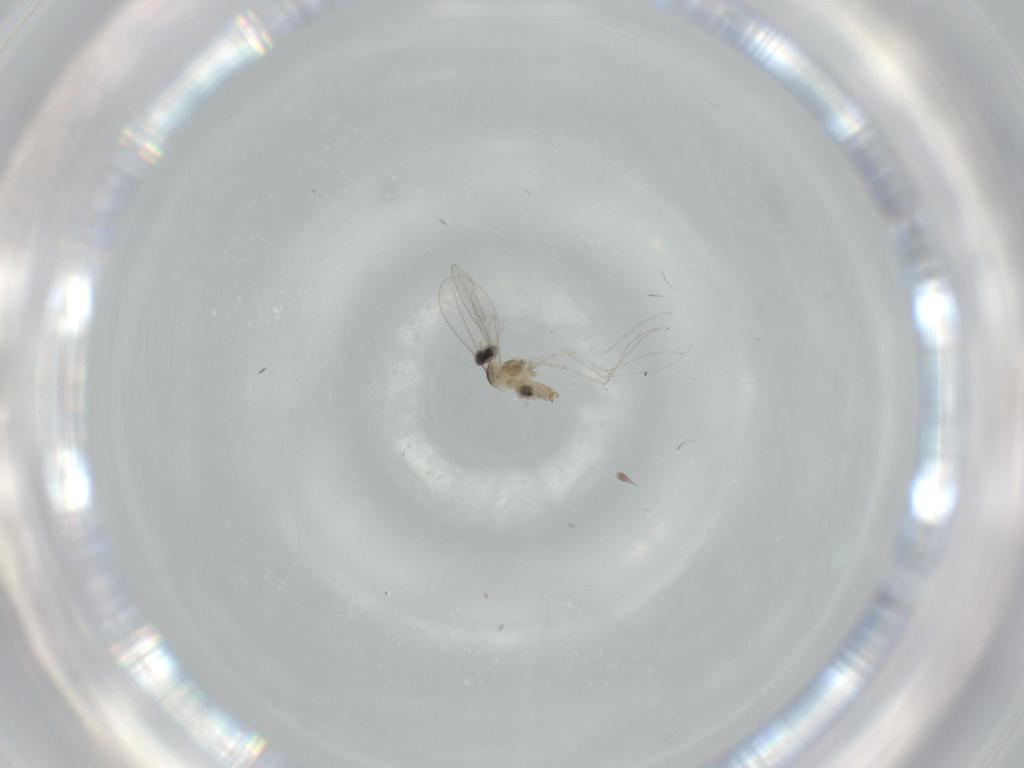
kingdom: Animalia
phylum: Arthropoda
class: Insecta
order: Diptera
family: Cecidomyiidae
